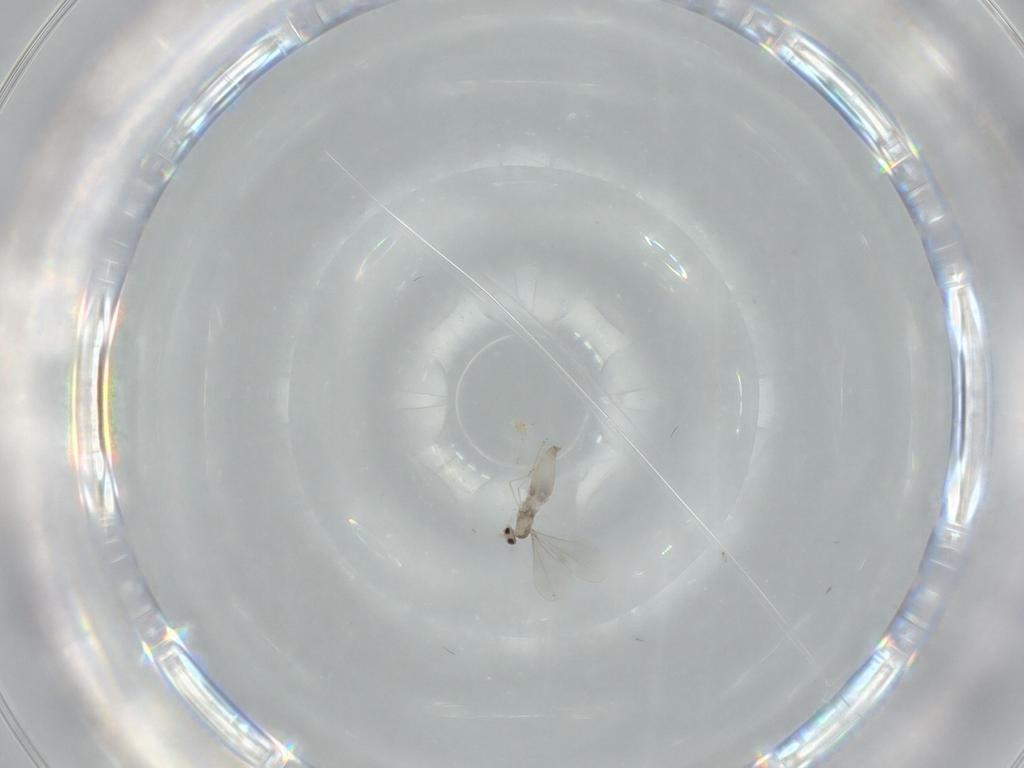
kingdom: Animalia
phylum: Arthropoda
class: Insecta
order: Diptera
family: Cecidomyiidae
